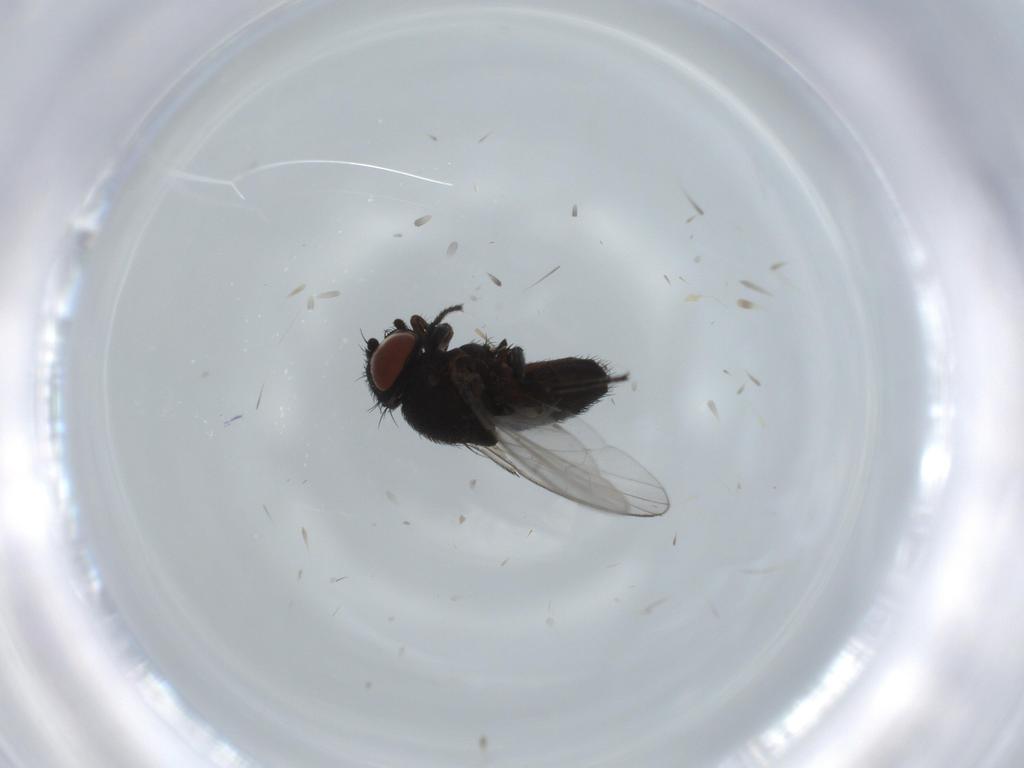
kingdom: Animalia
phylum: Arthropoda
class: Insecta
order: Diptera
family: Milichiidae
